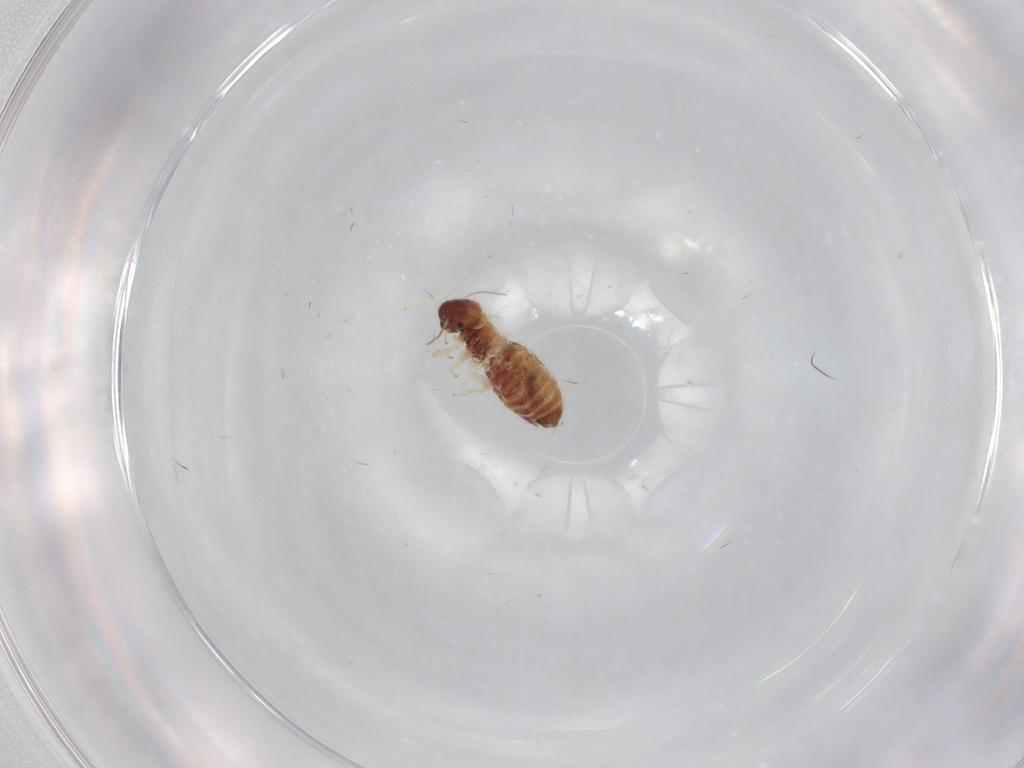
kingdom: Animalia
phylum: Arthropoda
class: Insecta
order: Psocodea
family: Archipsocidae
